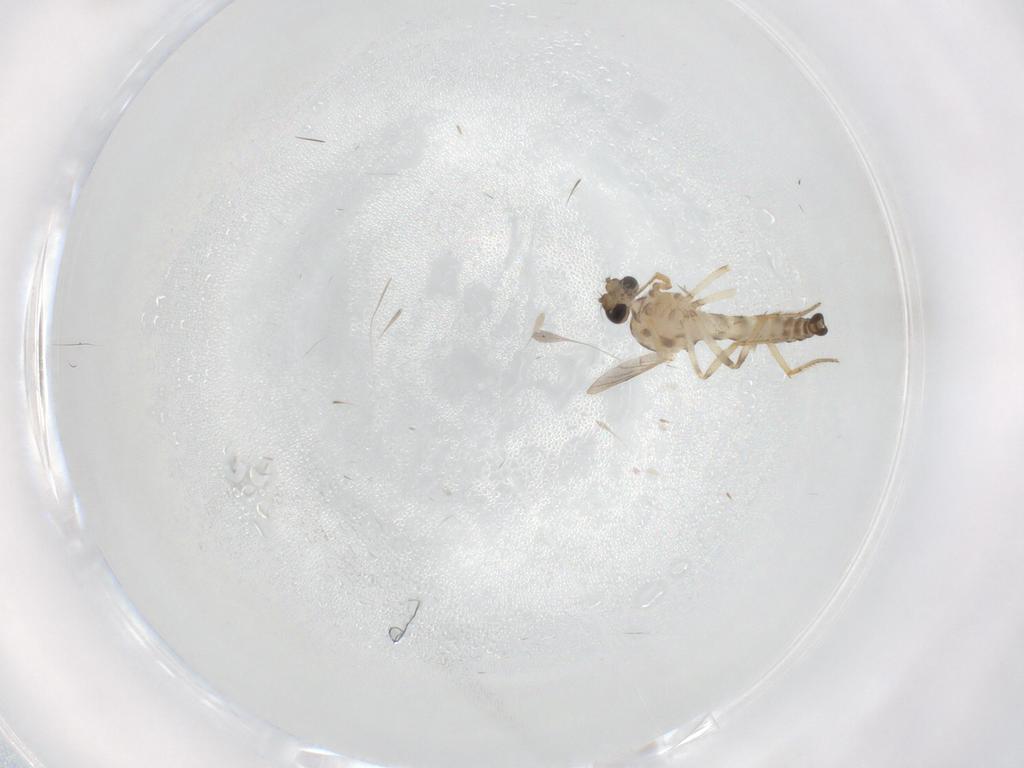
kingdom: Animalia
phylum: Arthropoda
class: Insecta
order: Diptera
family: Ceratopogonidae
